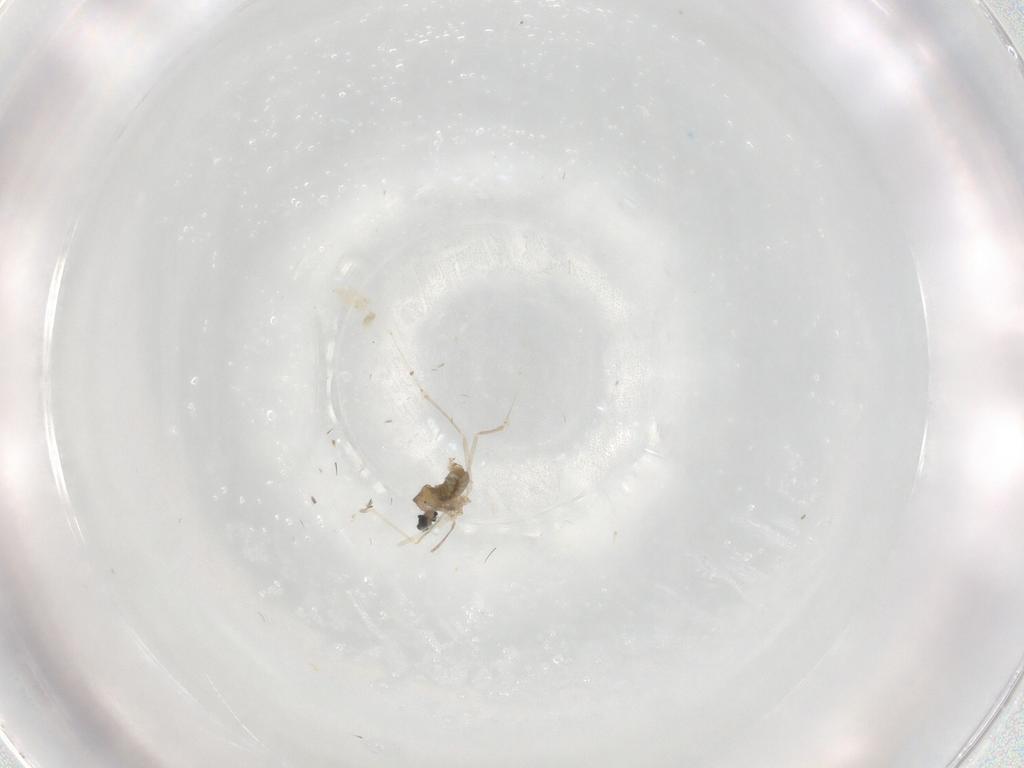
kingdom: Animalia
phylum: Arthropoda
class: Insecta
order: Diptera
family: Cecidomyiidae
